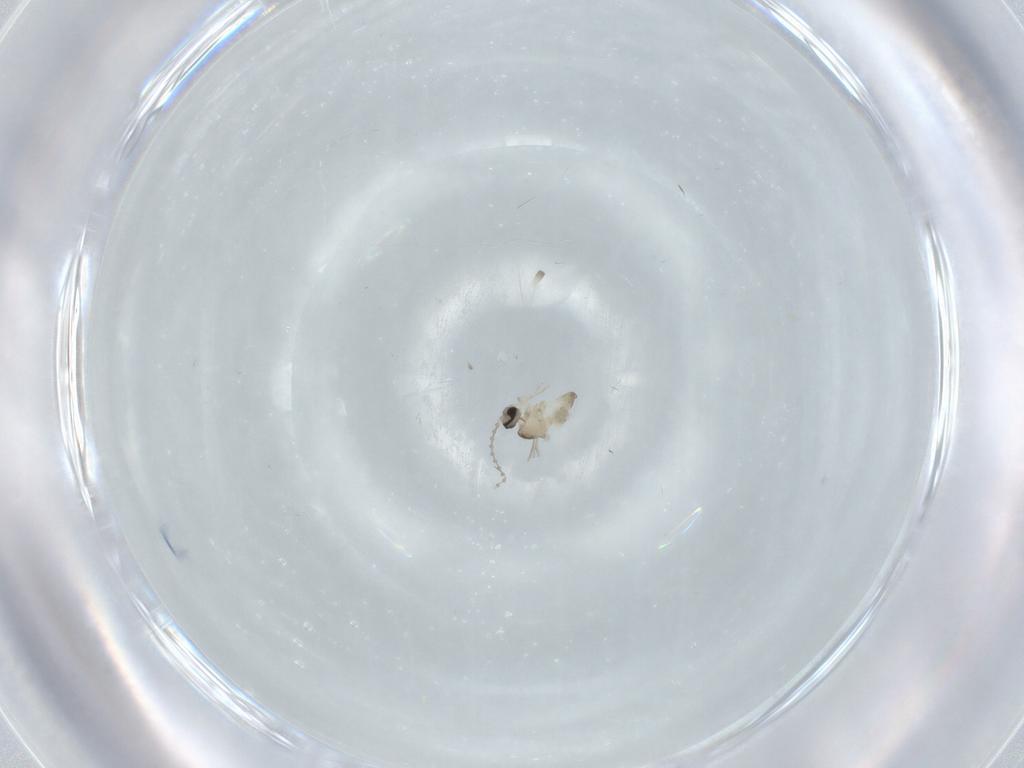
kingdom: Animalia
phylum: Arthropoda
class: Insecta
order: Diptera
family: Cecidomyiidae
